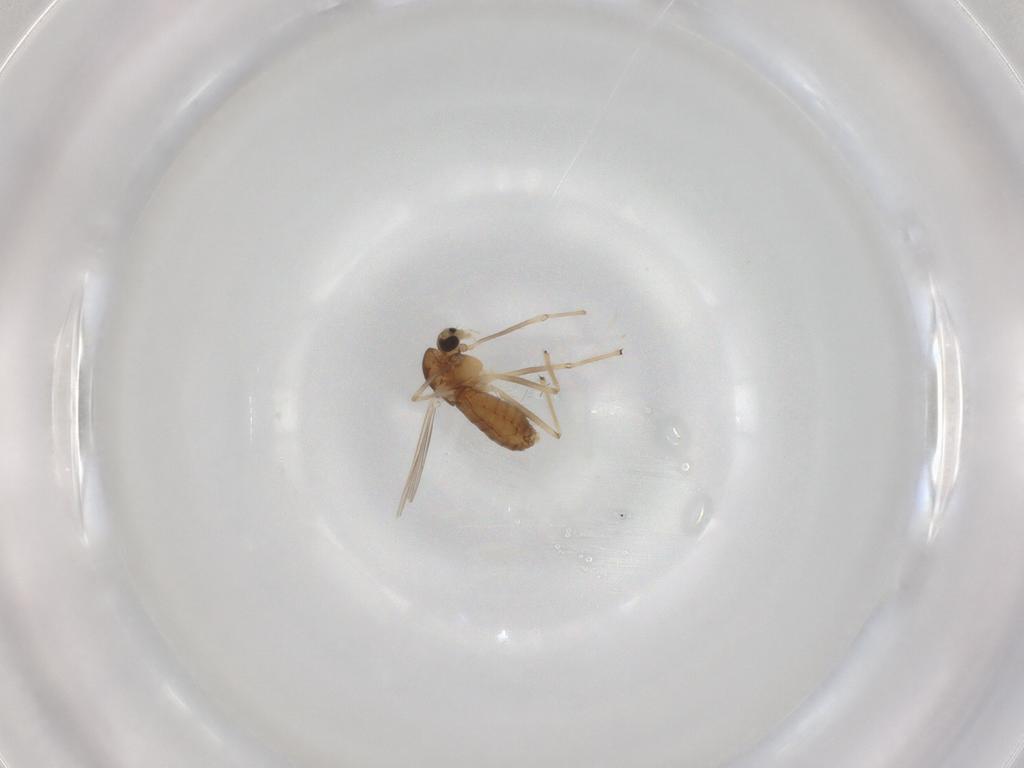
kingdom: Animalia
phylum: Arthropoda
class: Insecta
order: Diptera
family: Chironomidae
